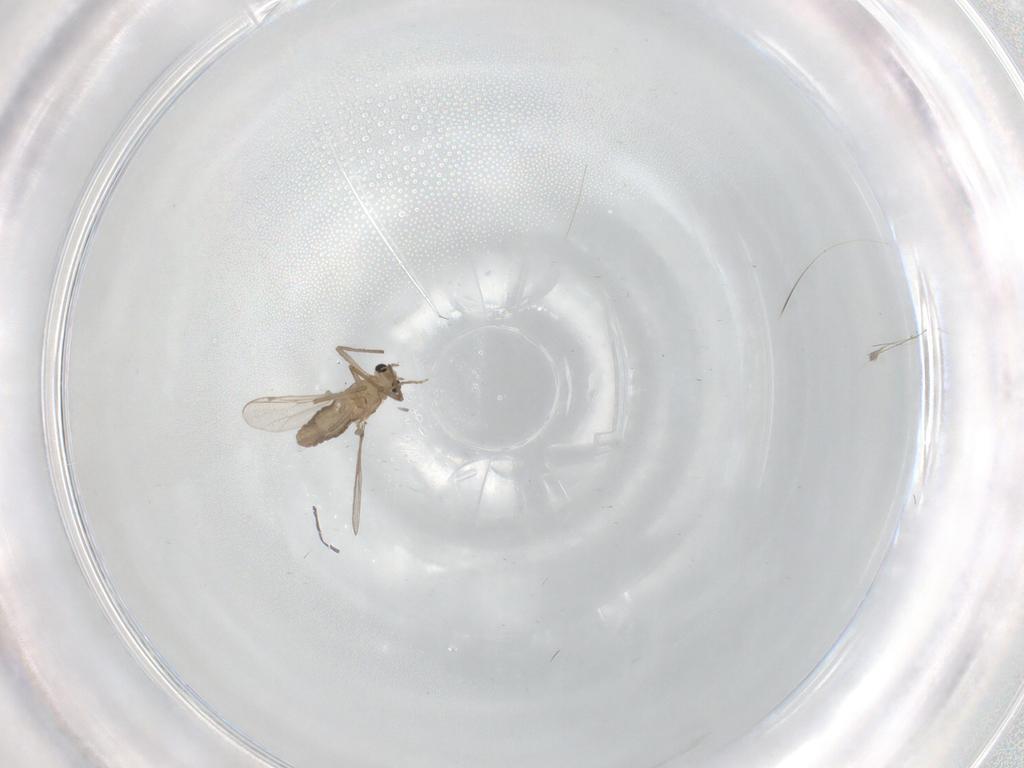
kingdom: Animalia
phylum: Arthropoda
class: Insecta
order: Diptera
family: Chironomidae
